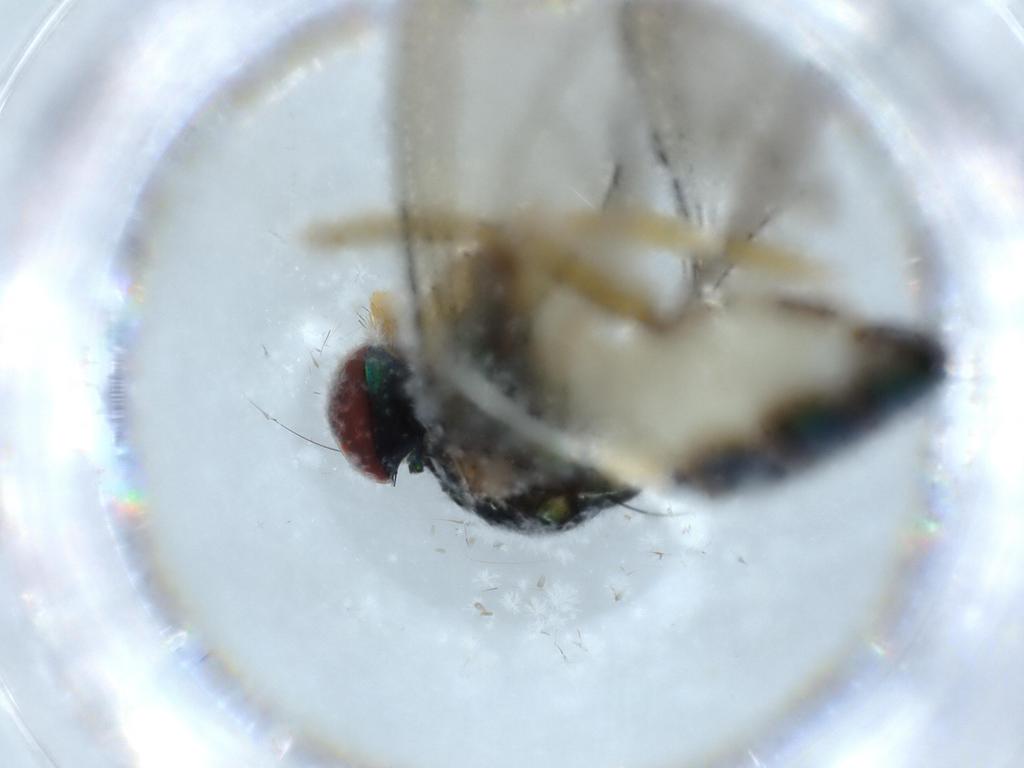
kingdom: Animalia
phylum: Arthropoda
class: Insecta
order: Diptera
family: Dolichopodidae
